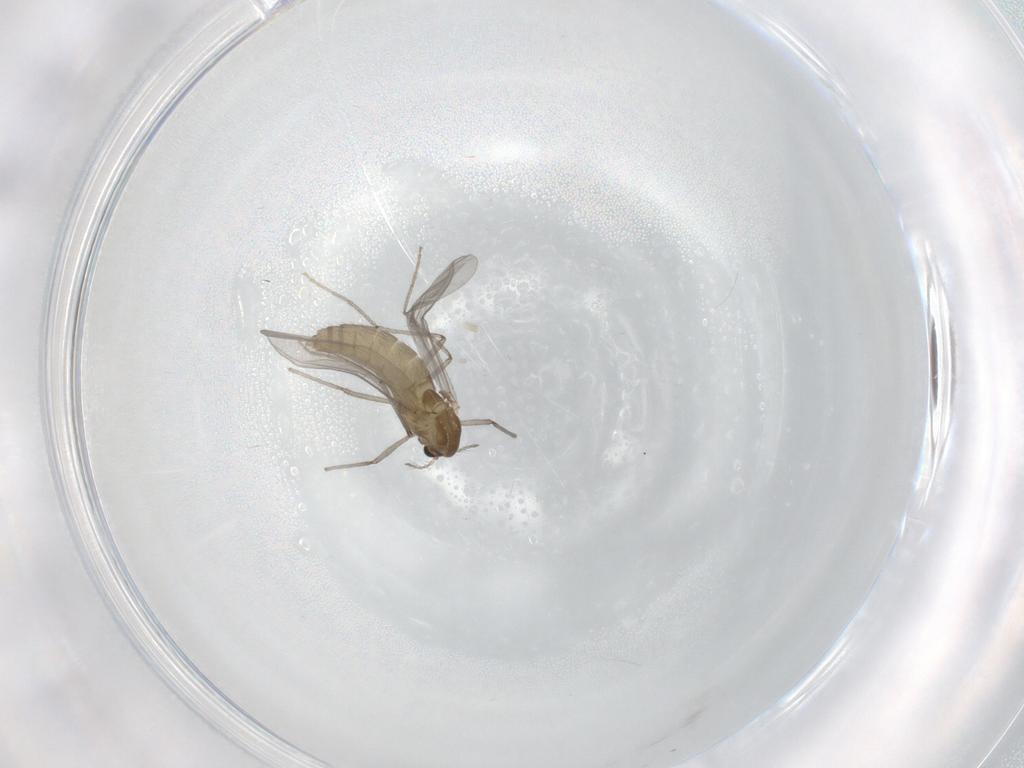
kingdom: Animalia
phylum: Arthropoda
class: Insecta
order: Diptera
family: Chironomidae
